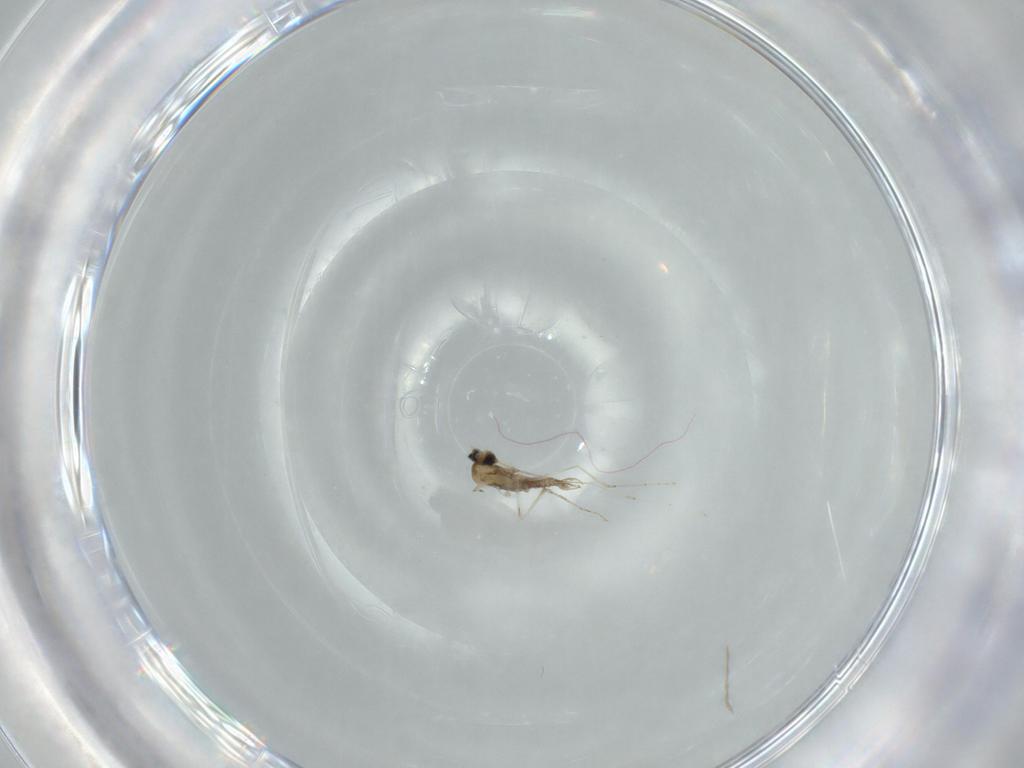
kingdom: Animalia
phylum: Arthropoda
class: Insecta
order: Diptera
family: Cecidomyiidae
